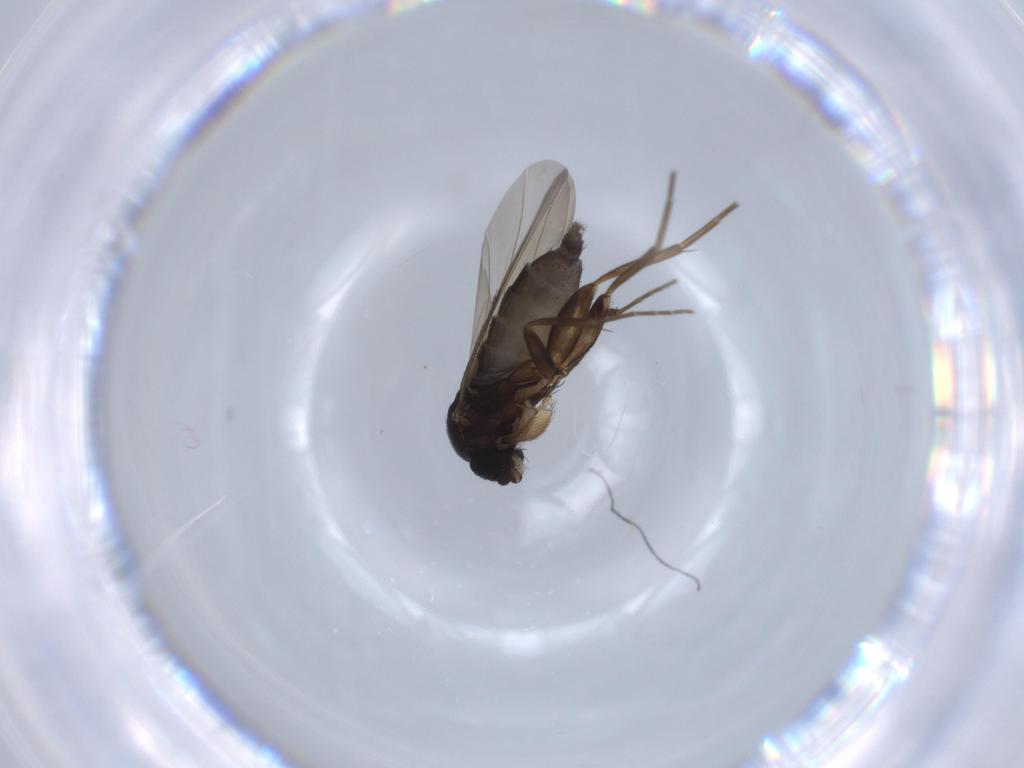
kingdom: Animalia
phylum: Arthropoda
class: Insecta
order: Diptera
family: Phoridae
